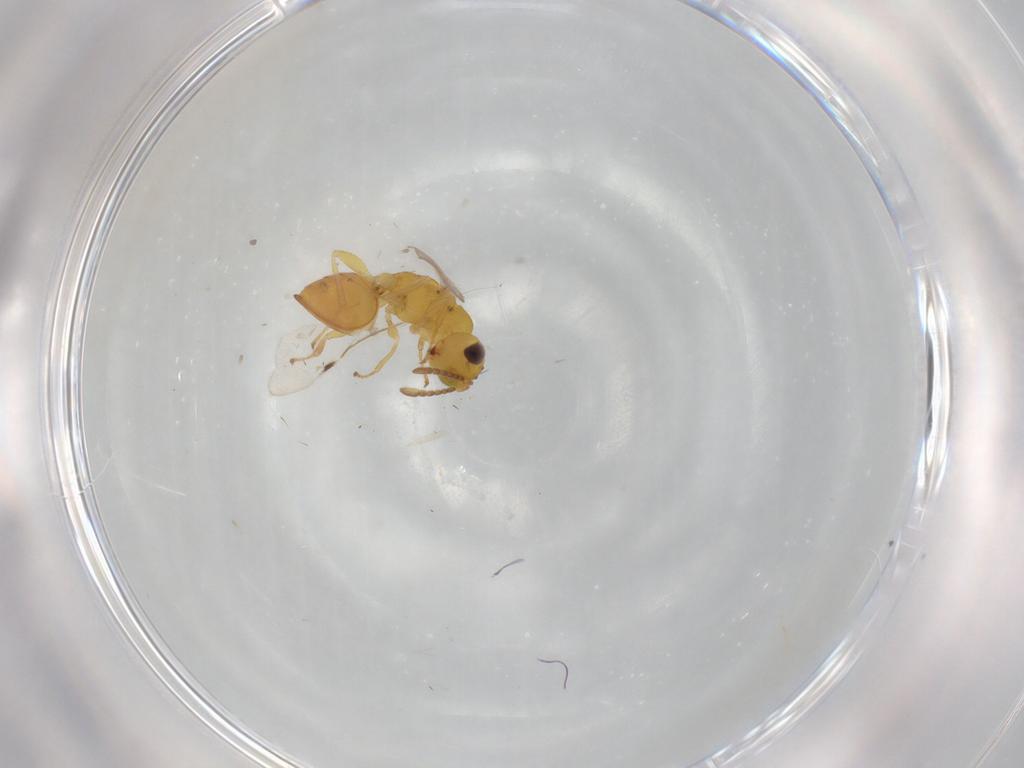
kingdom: Animalia
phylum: Arthropoda
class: Insecta
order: Hymenoptera
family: Eurytomidae
